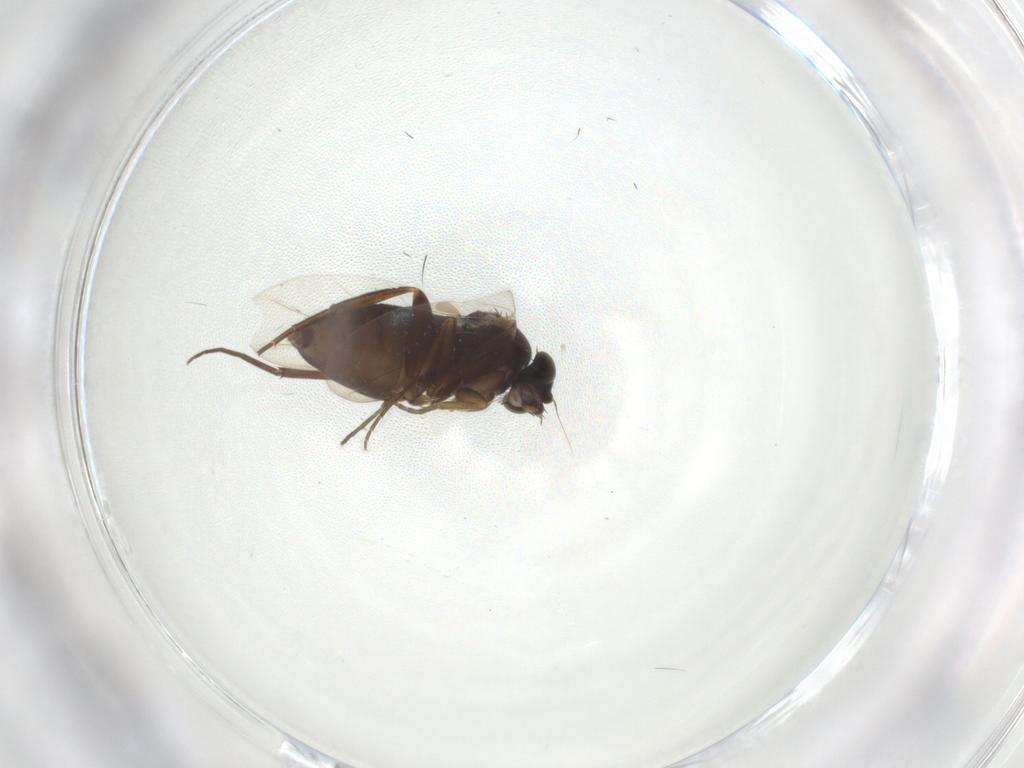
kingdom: Animalia
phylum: Arthropoda
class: Insecta
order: Diptera
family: Phoridae
